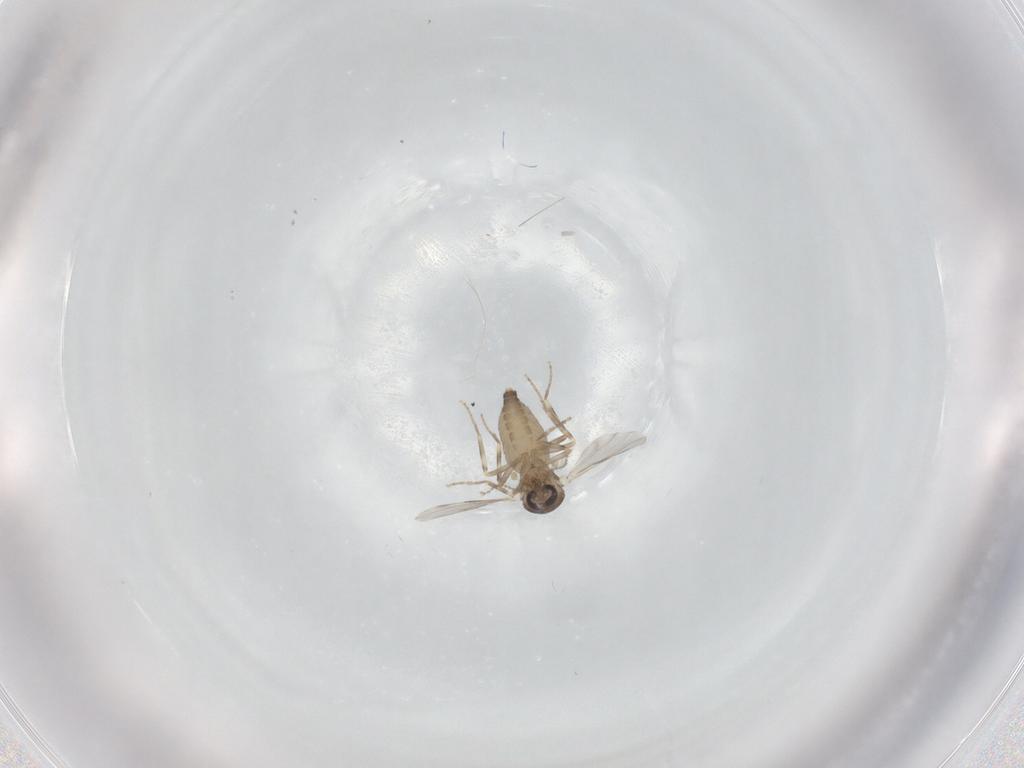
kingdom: Animalia
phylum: Arthropoda
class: Insecta
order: Diptera
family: Ceratopogonidae
